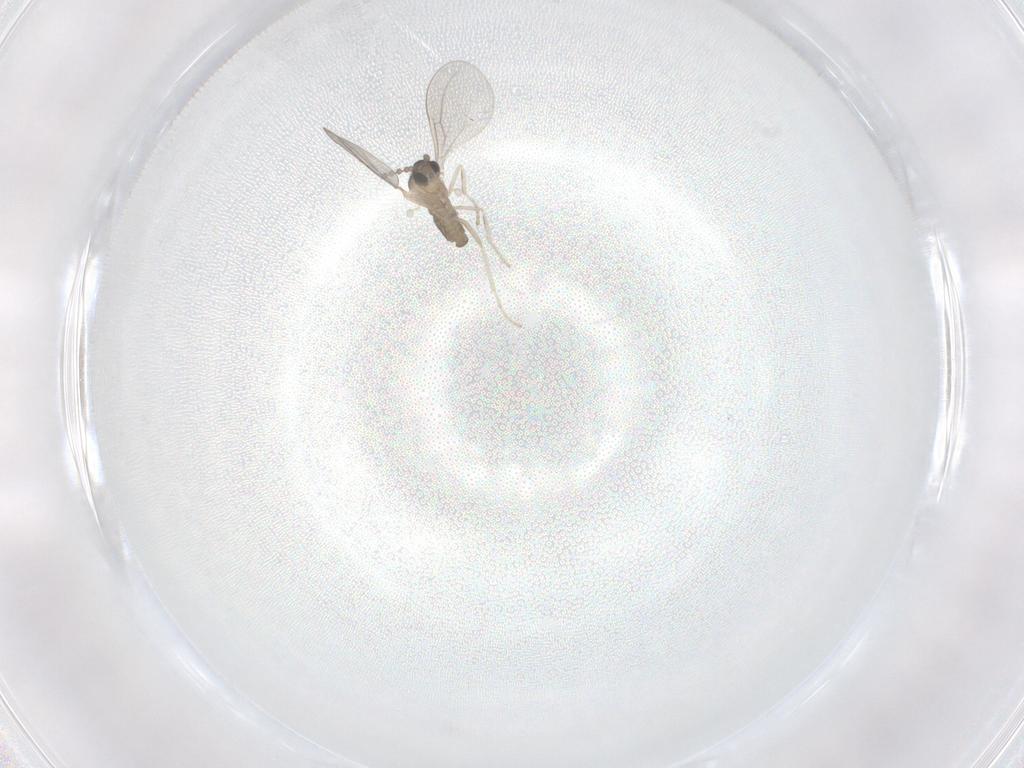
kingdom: Animalia
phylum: Arthropoda
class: Insecta
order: Diptera
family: Cecidomyiidae
